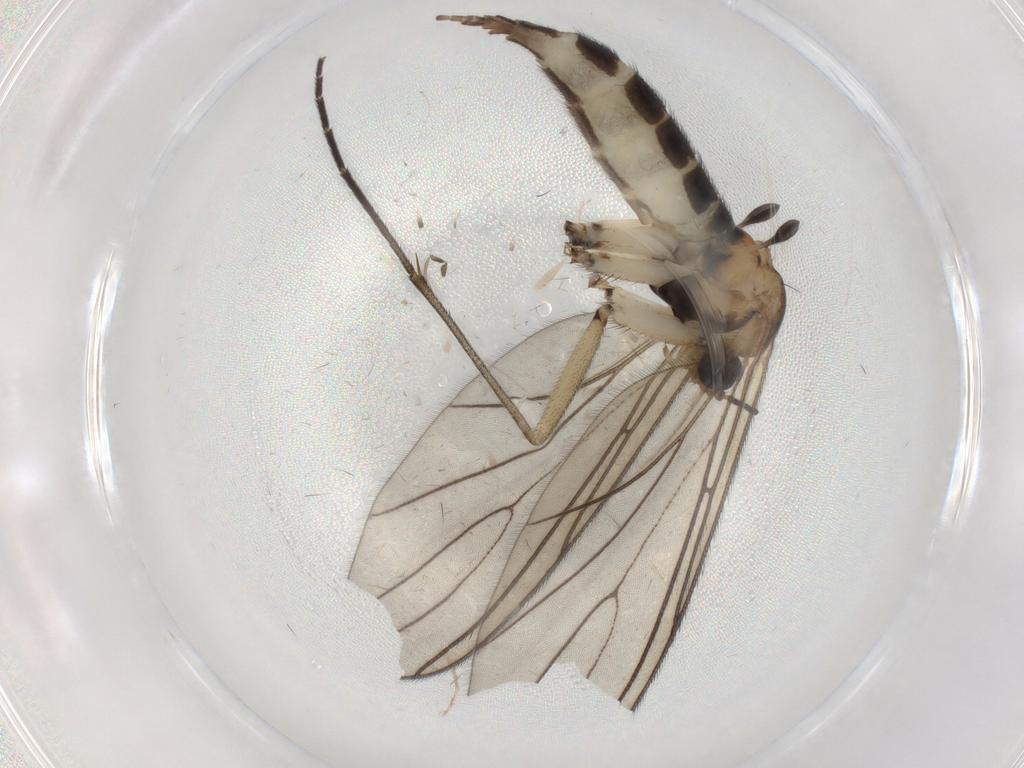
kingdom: Animalia
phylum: Arthropoda
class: Insecta
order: Diptera
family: Sciaridae
